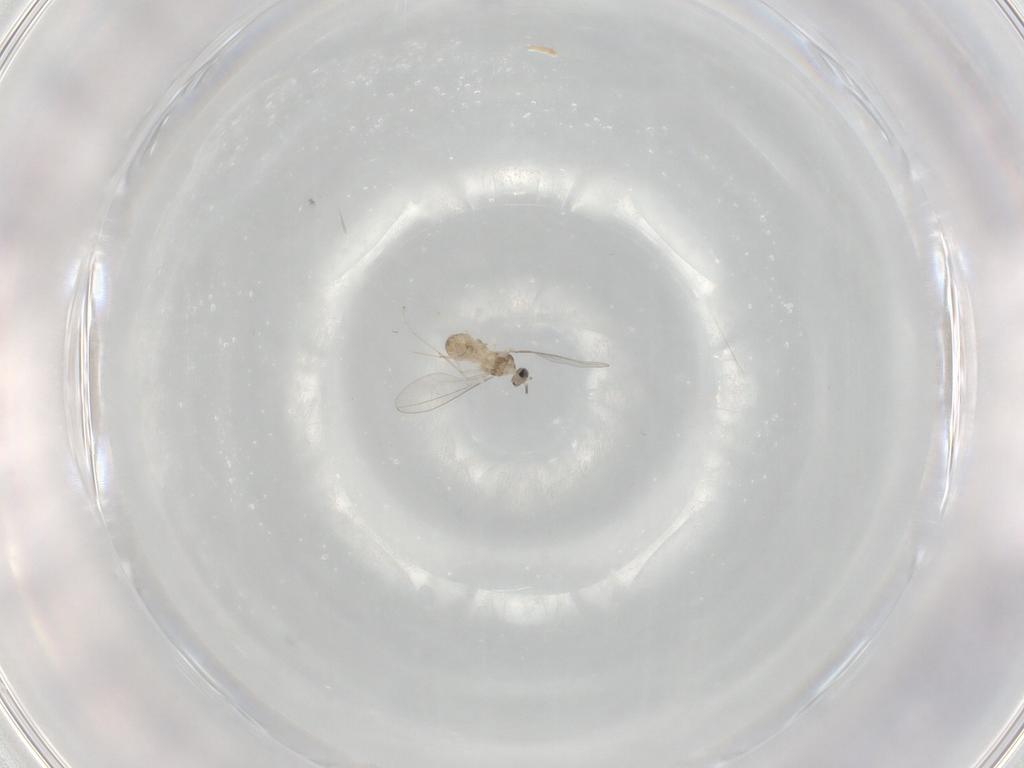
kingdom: Animalia
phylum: Arthropoda
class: Insecta
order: Diptera
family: Cecidomyiidae
